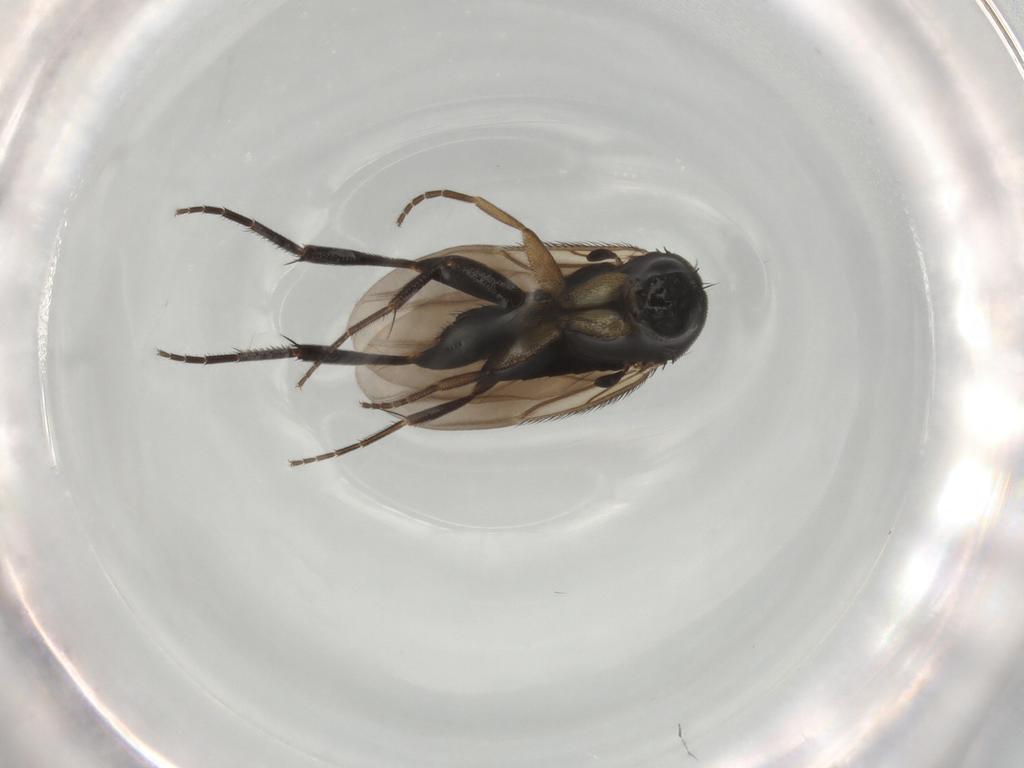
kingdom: Animalia
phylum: Arthropoda
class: Insecta
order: Diptera
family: Phoridae
